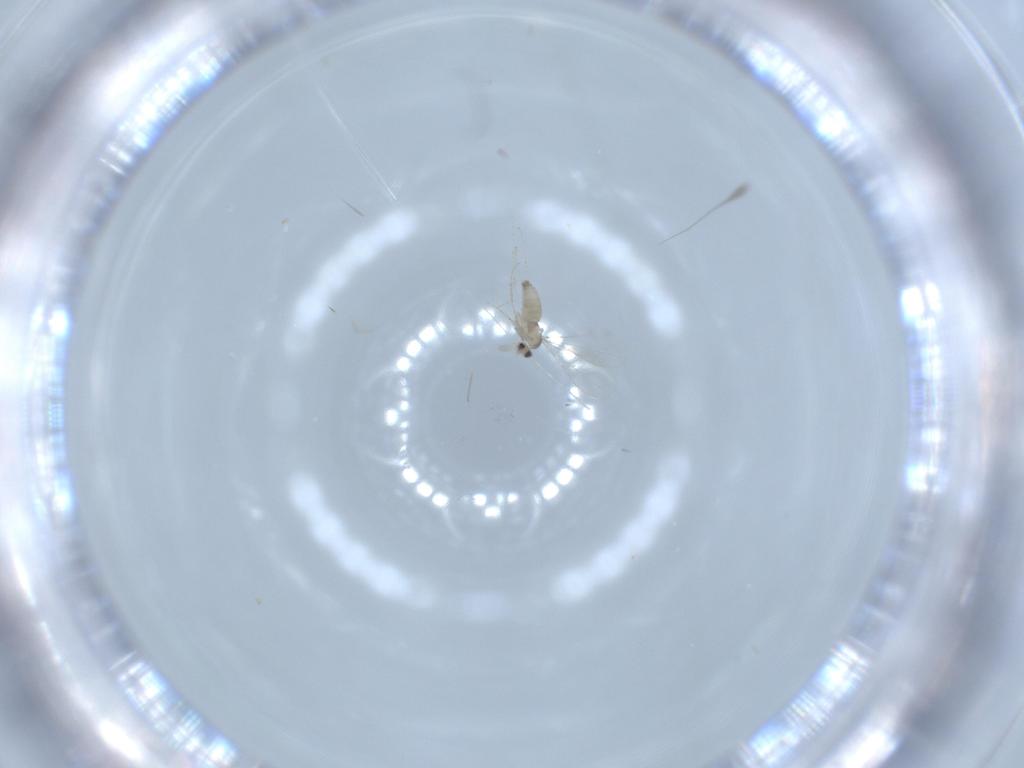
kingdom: Animalia
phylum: Arthropoda
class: Insecta
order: Diptera
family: Cecidomyiidae
